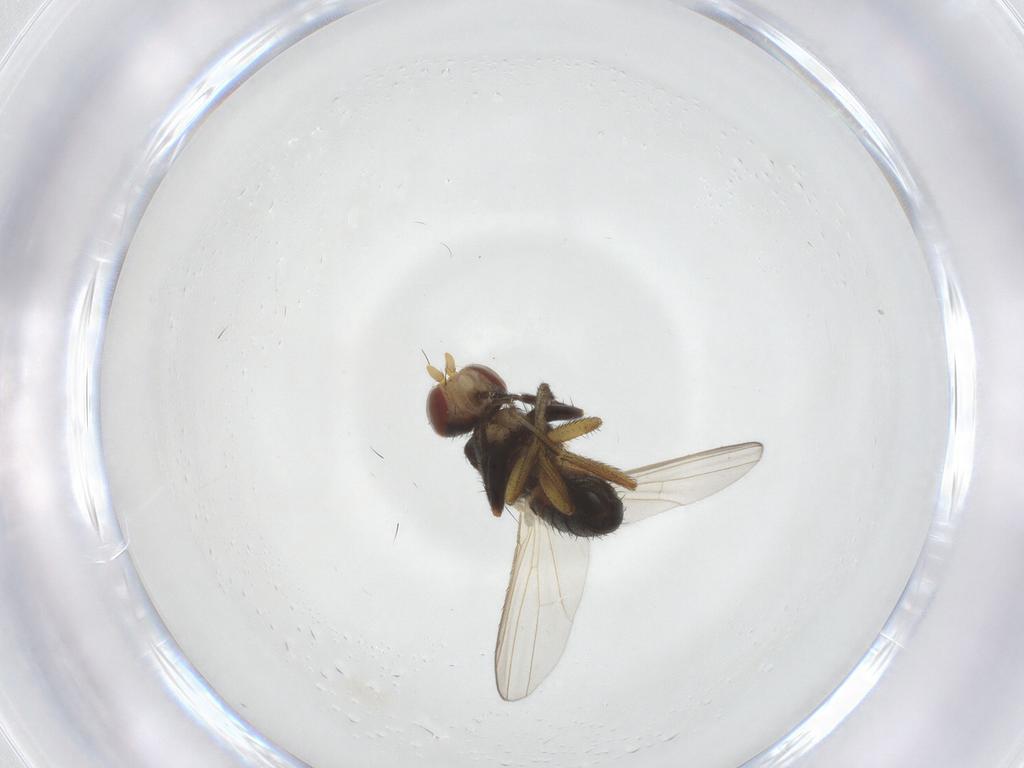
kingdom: Animalia
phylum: Arthropoda
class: Insecta
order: Diptera
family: Heleomyzidae
